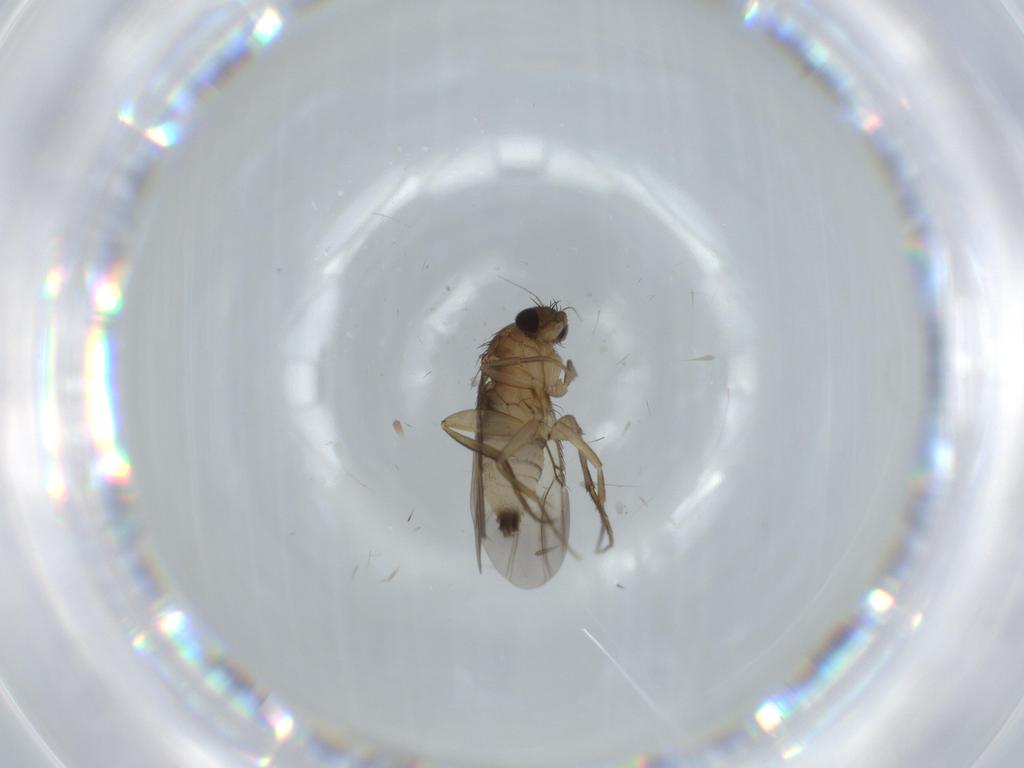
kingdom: Animalia
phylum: Arthropoda
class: Insecta
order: Diptera
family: Phoridae
